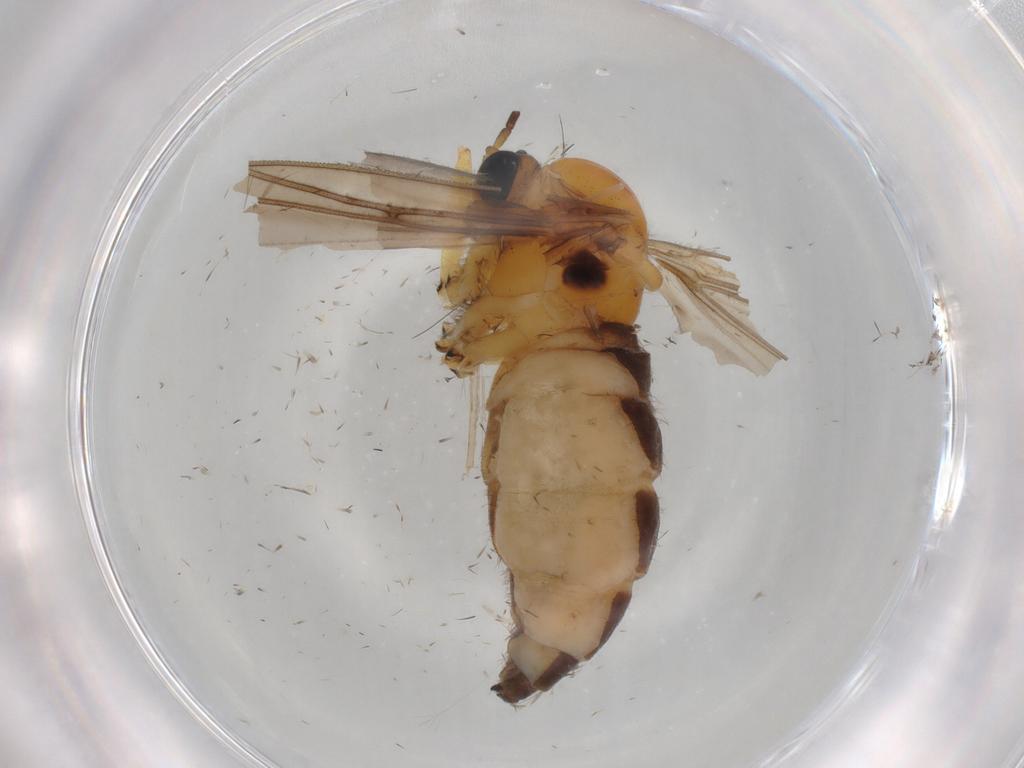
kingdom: Animalia
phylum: Arthropoda
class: Insecta
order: Diptera
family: Sciaridae
